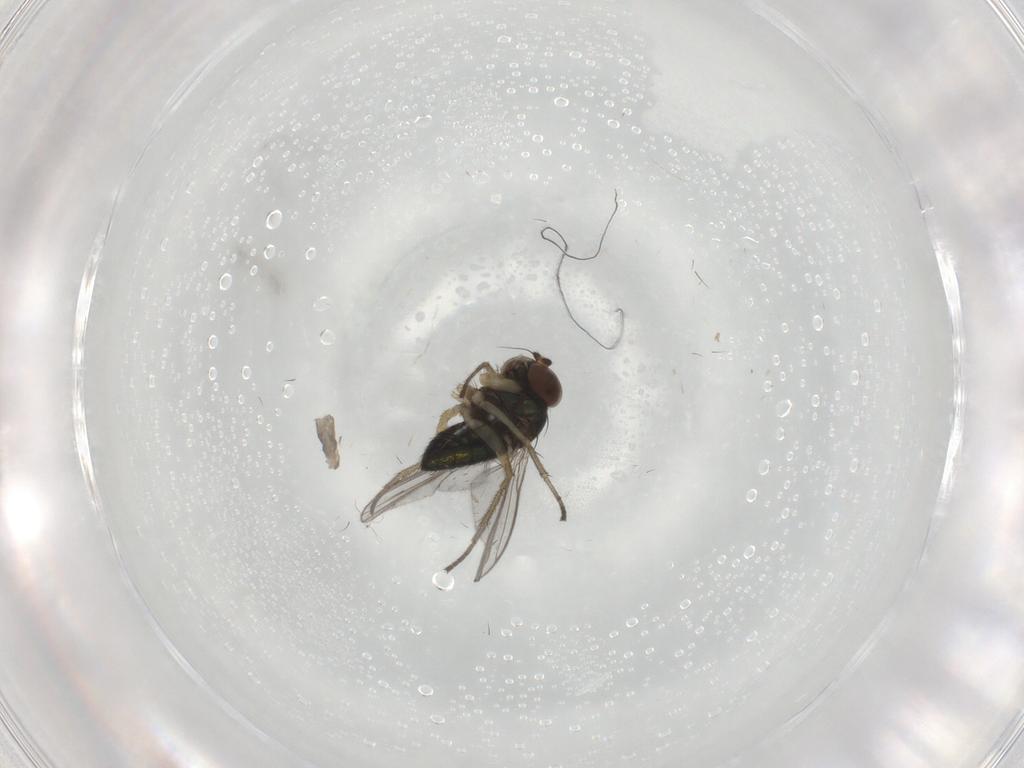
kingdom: Animalia
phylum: Arthropoda
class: Insecta
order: Diptera
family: Dolichopodidae
